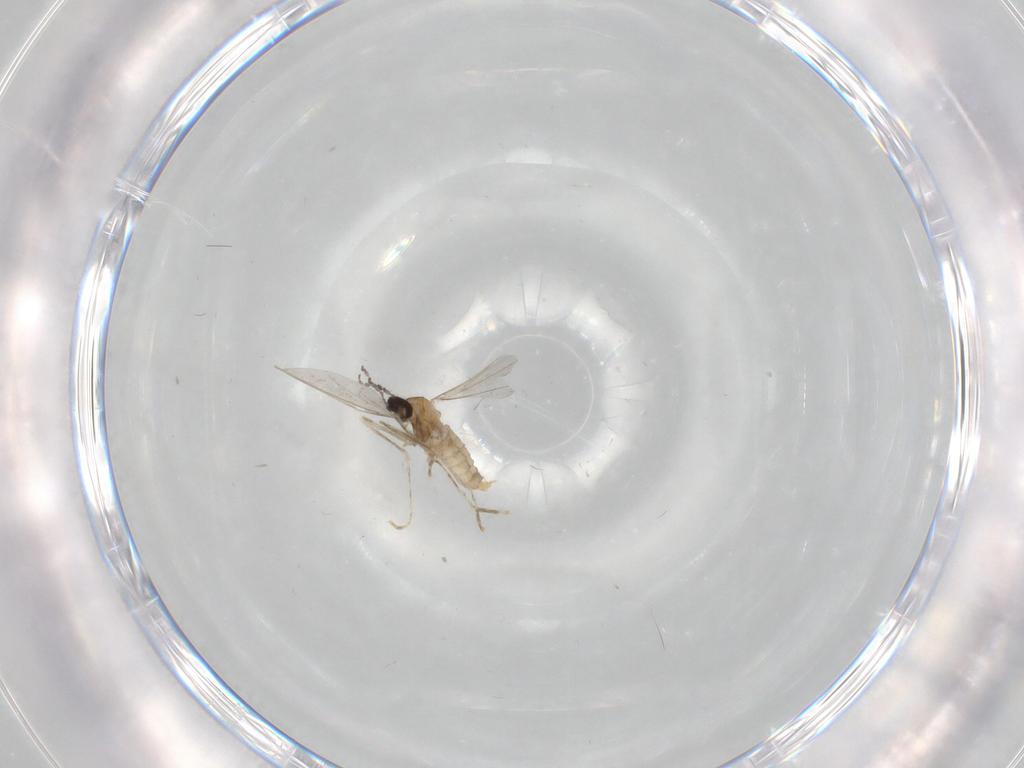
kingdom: Animalia
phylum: Arthropoda
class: Insecta
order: Diptera
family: Cecidomyiidae
